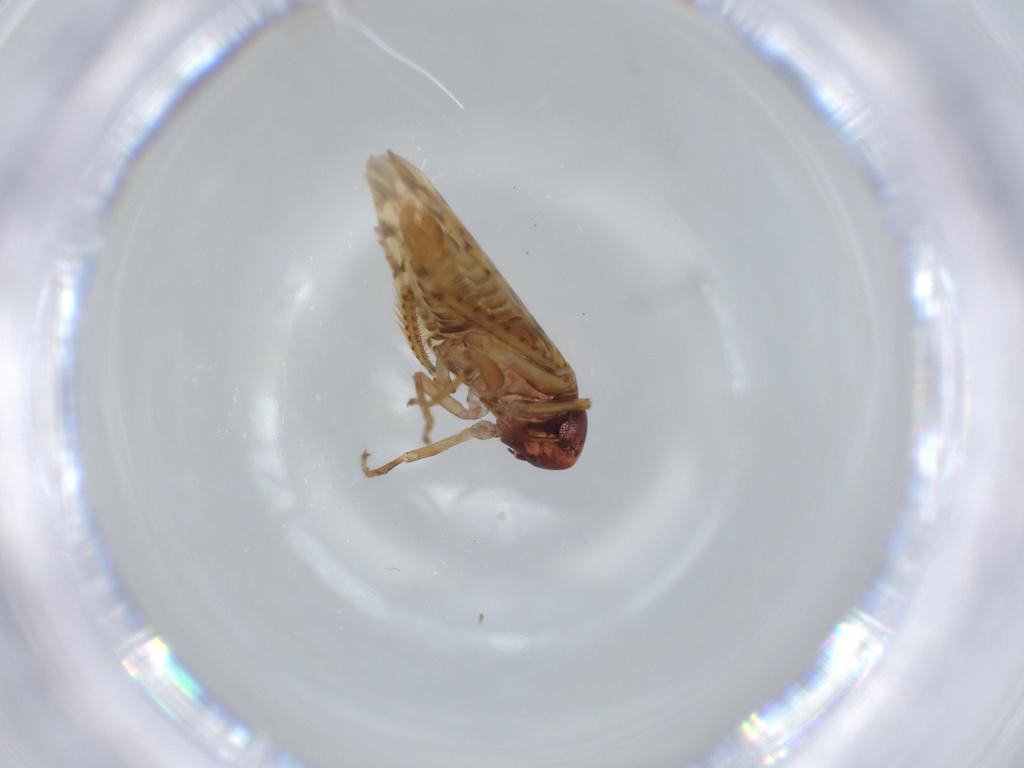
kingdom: Animalia
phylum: Arthropoda
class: Insecta
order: Hemiptera
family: Cicadellidae
